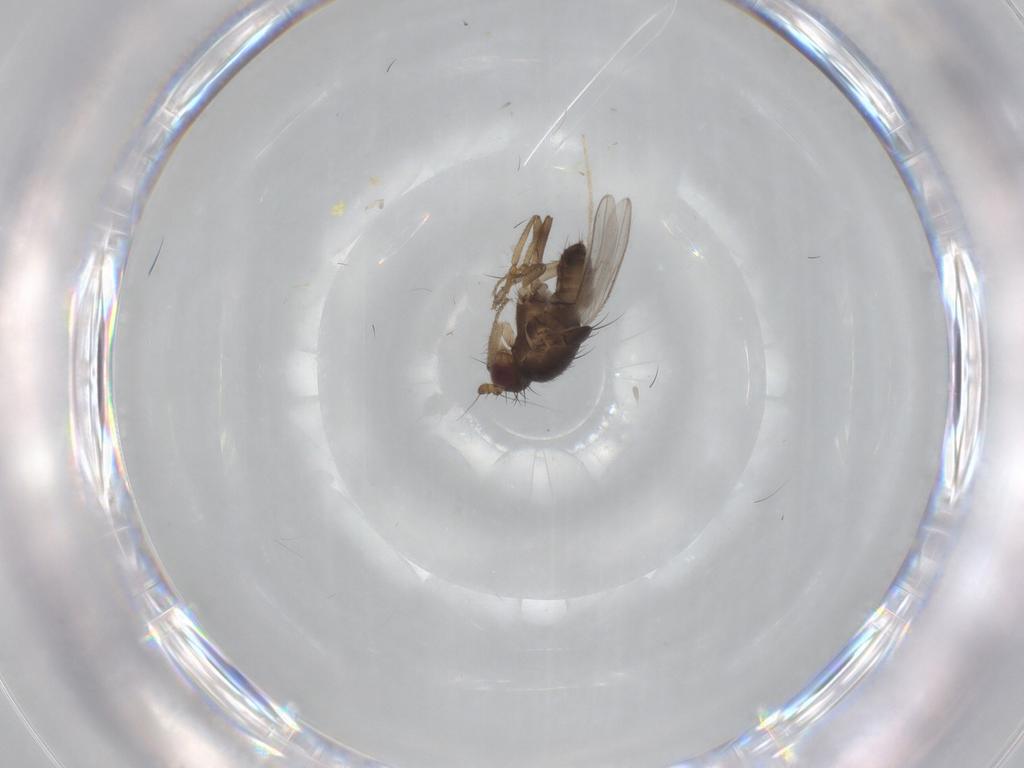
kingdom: Animalia
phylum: Arthropoda
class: Insecta
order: Diptera
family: Sphaeroceridae
